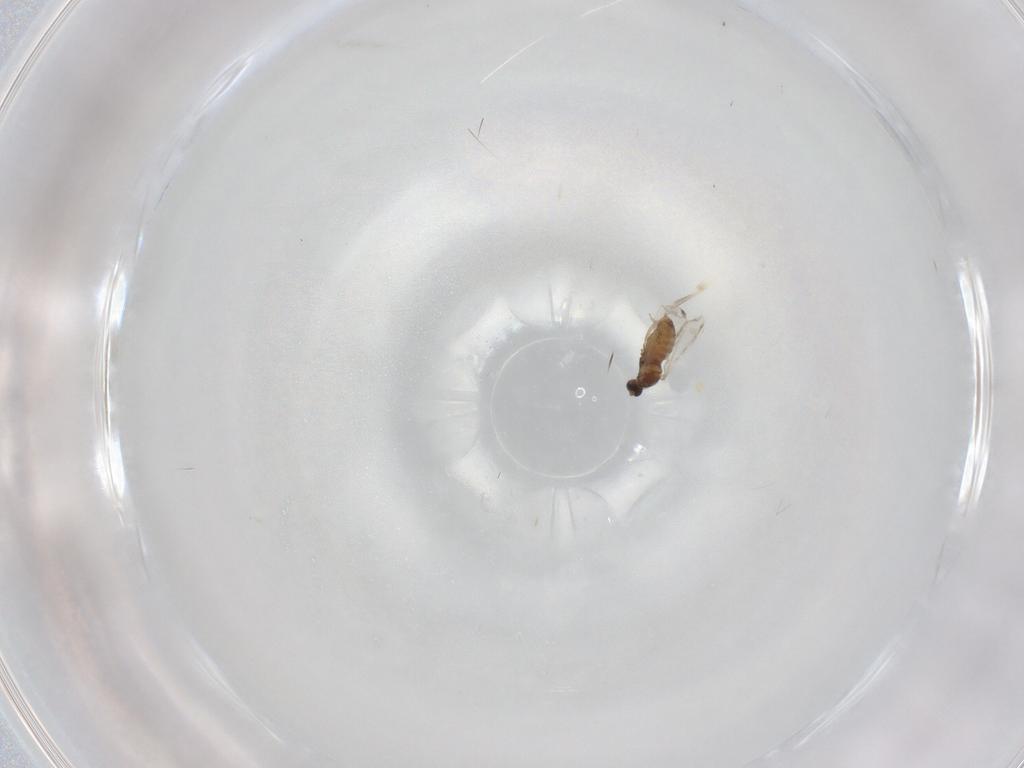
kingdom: Animalia
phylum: Arthropoda
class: Insecta
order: Diptera
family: Cecidomyiidae
